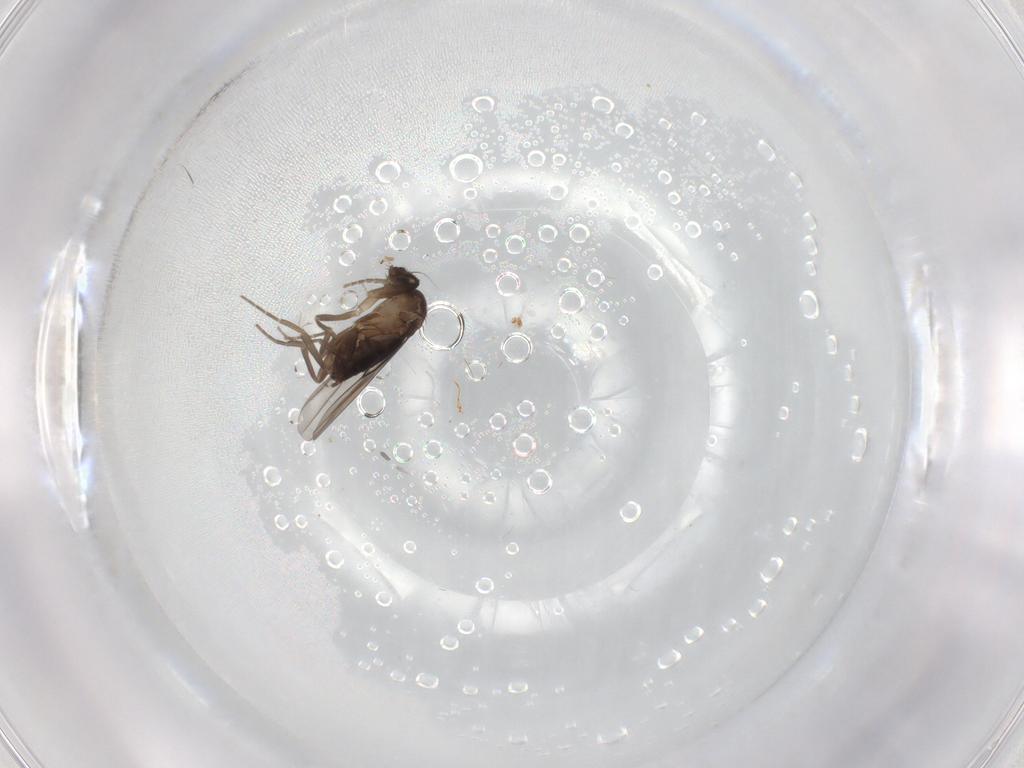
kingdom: Animalia
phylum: Arthropoda
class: Insecta
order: Diptera
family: Phoridae
